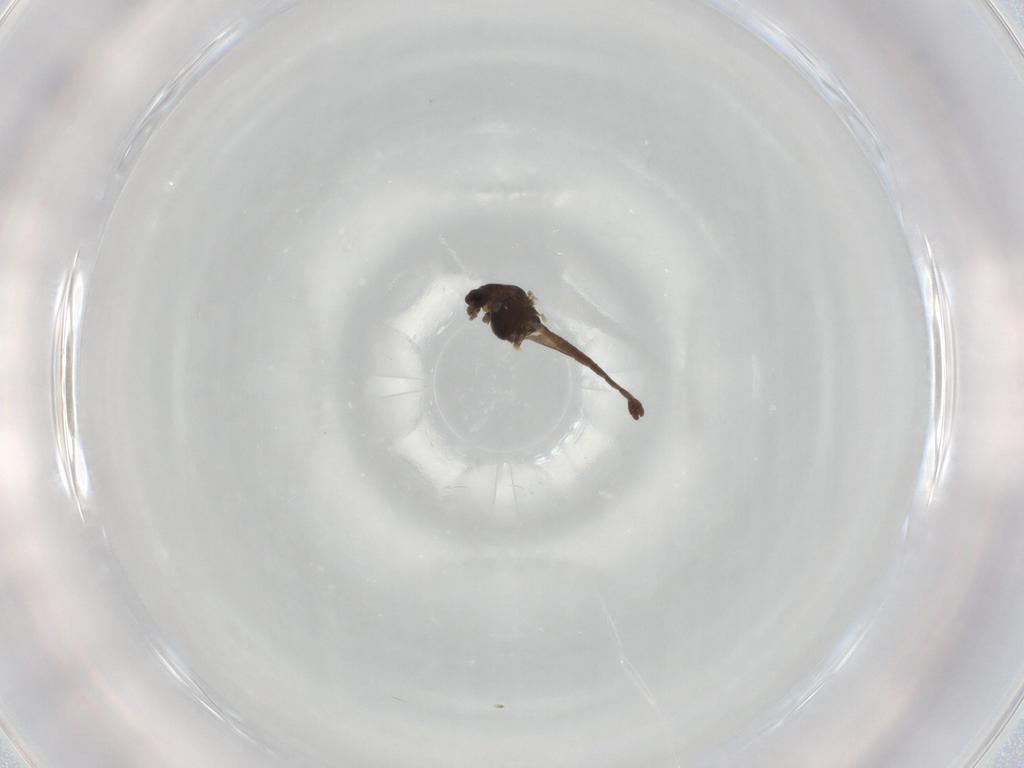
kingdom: Animalia
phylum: Arthropoda
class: Insecta
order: Diptera
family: Chironomidae
